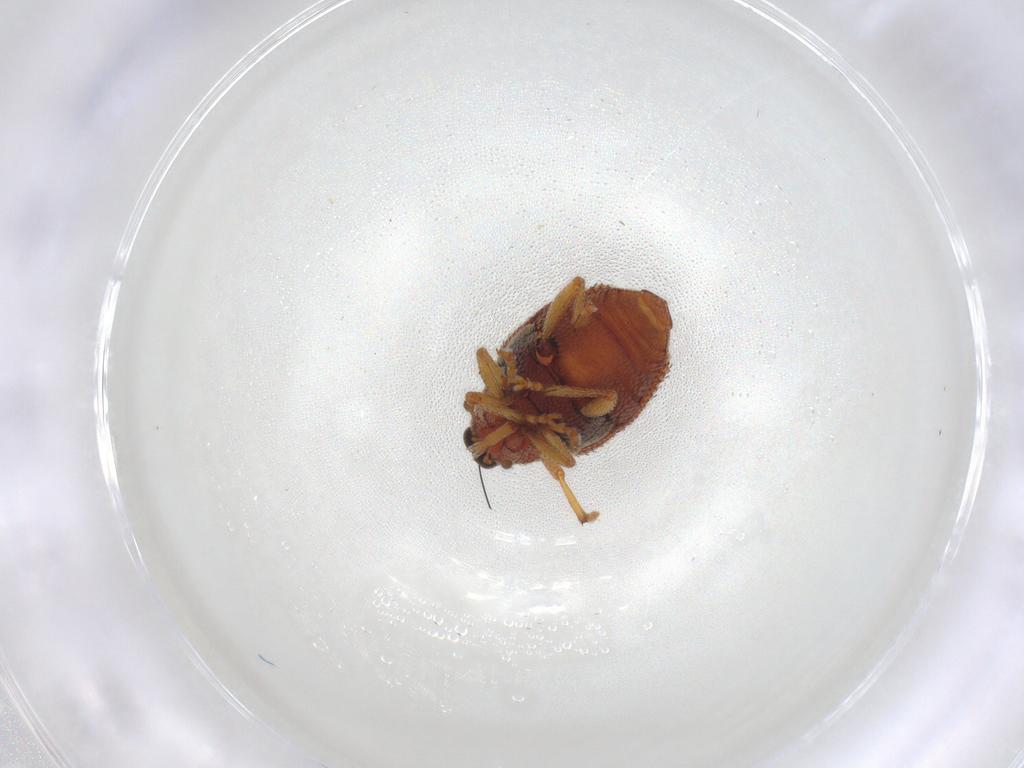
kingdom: Animalia
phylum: Arthropoda
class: Insecta
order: Coleoptera
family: Curculionidae
